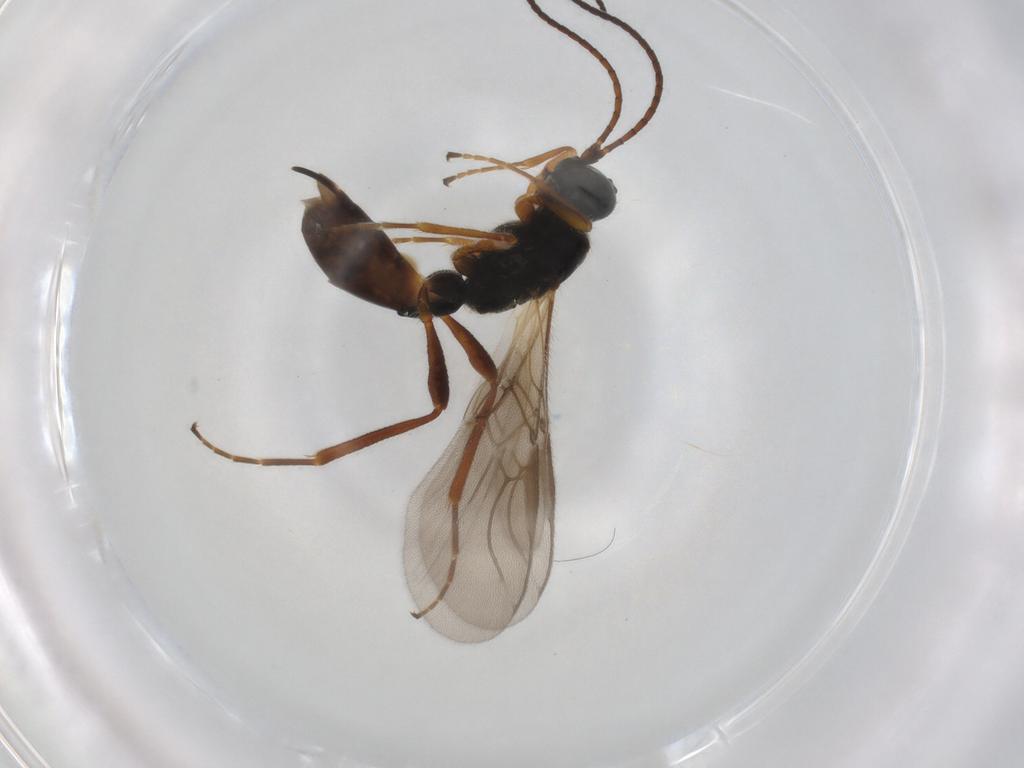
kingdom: Animalia
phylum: Arthropoda
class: Insecta
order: Hymenoptera
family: Braconidae
